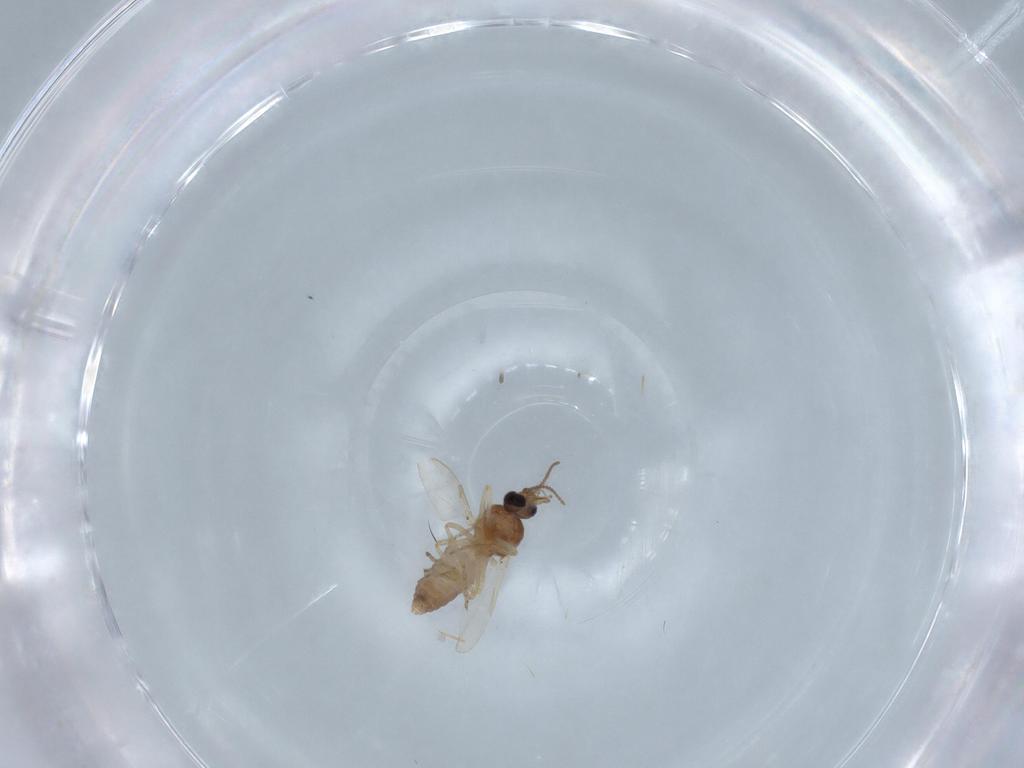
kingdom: Animalia
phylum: Arthropoda
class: Insecta
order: Diptera
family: Ceratopogonidae
